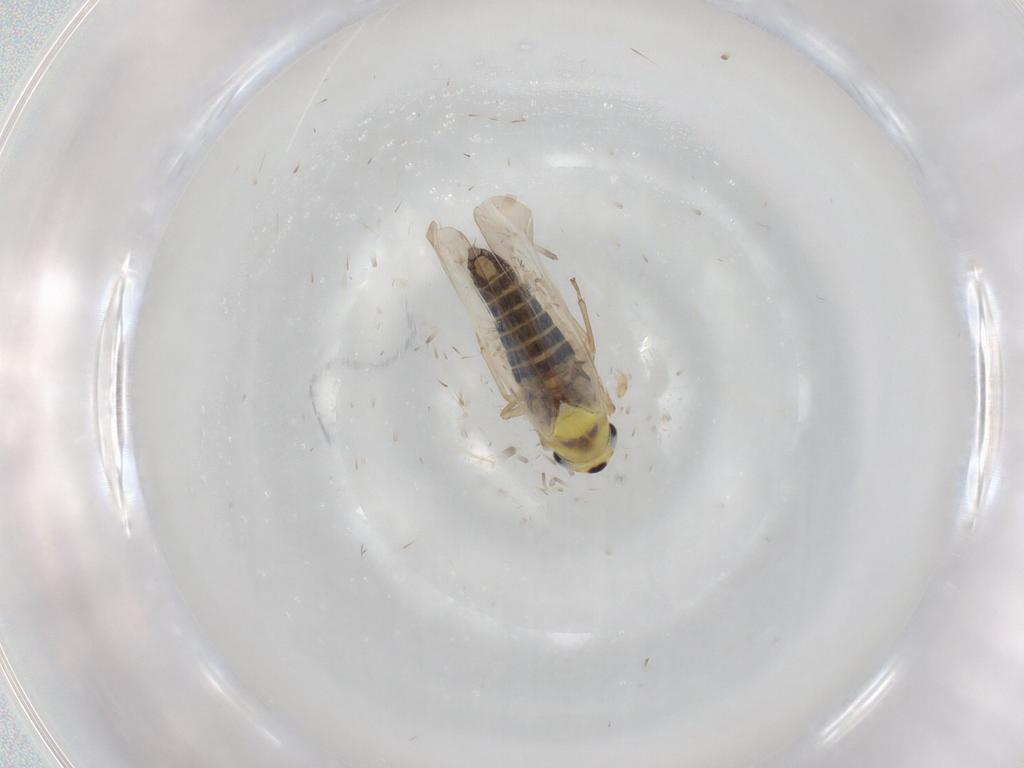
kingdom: Animalia
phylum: Arthropoda
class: Insecta
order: Hemiptera
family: Cicadellidae
